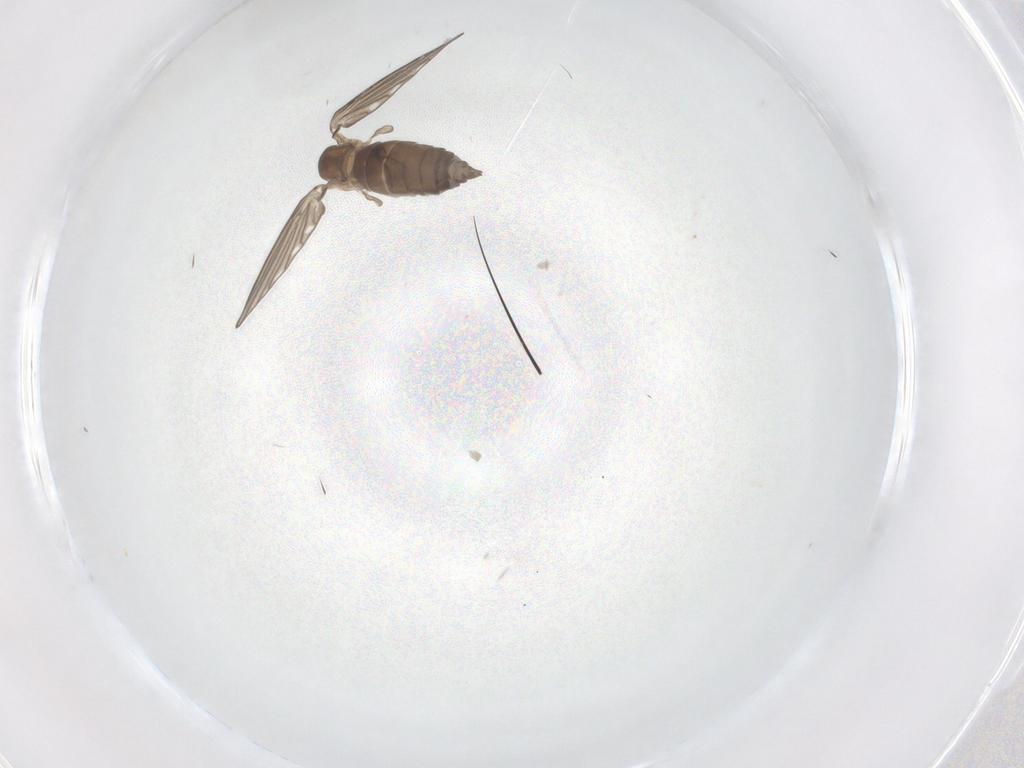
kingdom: Animalia
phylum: Arthropoda
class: Insecta
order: Diptera
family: Psychodidae
